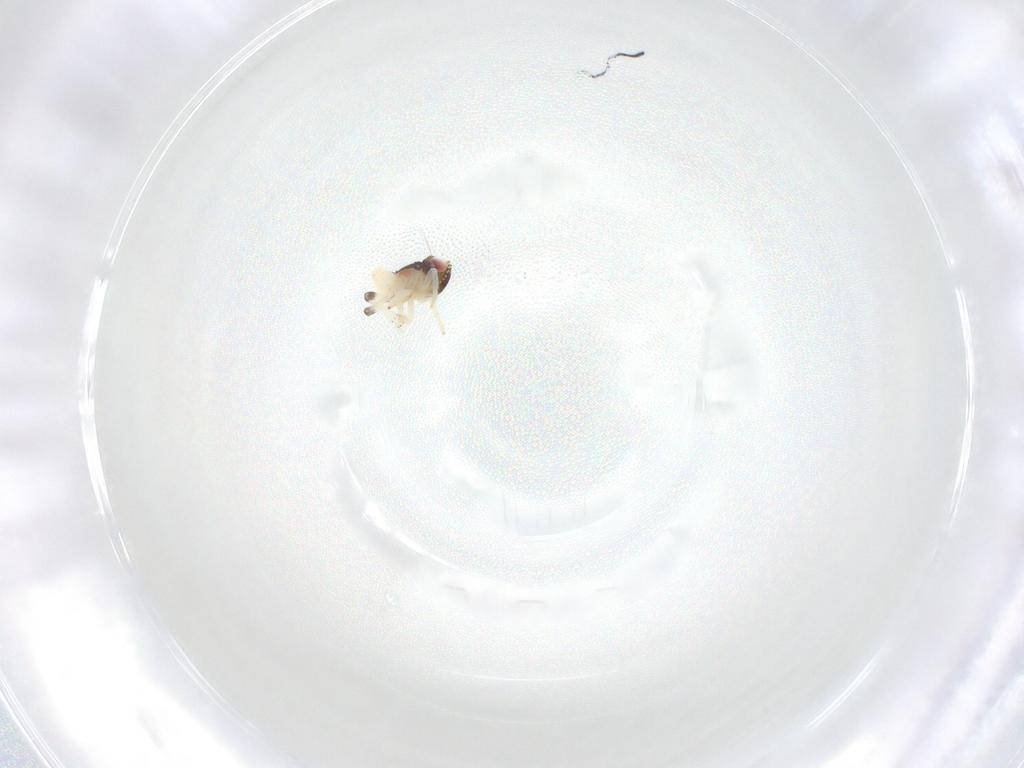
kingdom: Animalia
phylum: Arthropoda
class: Insecta
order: Hemiptera
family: Nogodinidae
